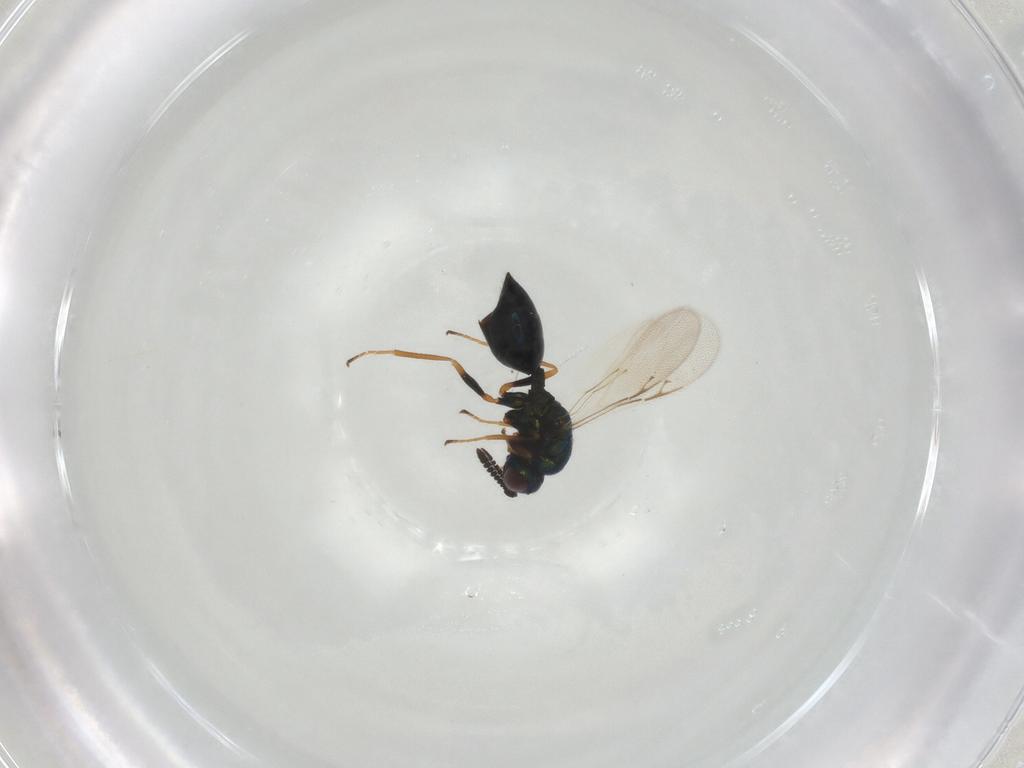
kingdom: Animalia
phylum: Arthropoda
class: Insecta
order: Hymenoptera
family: Chalcidoidea_incertae_sedis
